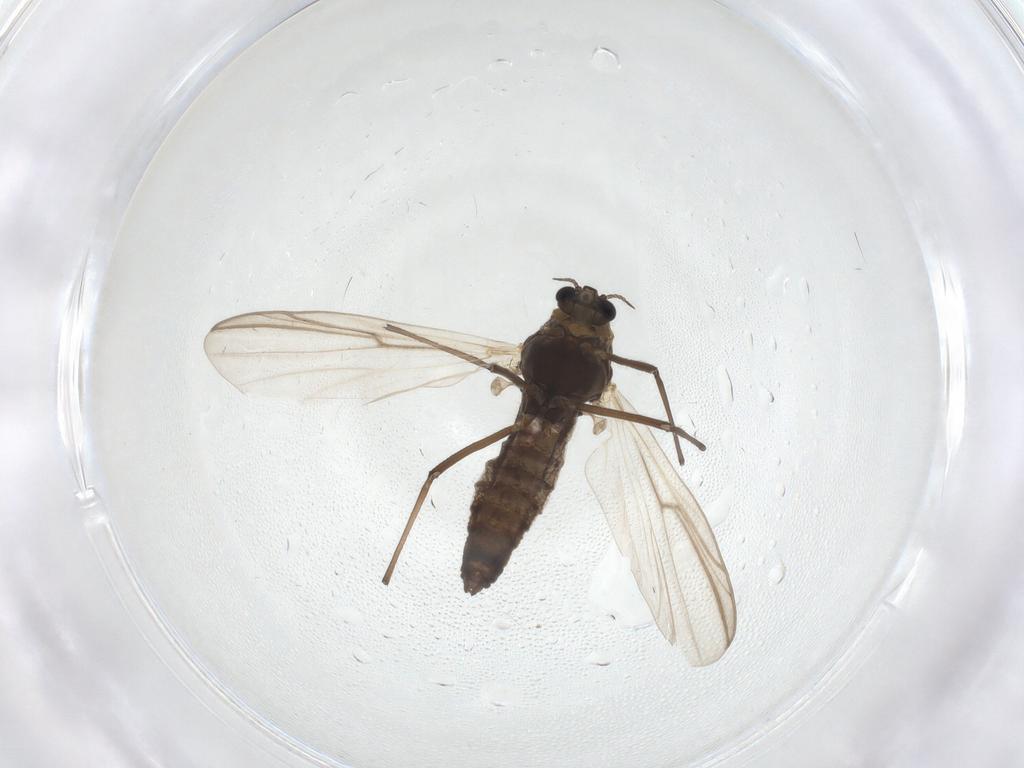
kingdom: Animalia
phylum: Arthropoda
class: Insecta
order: Diptera
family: Chironomidae
